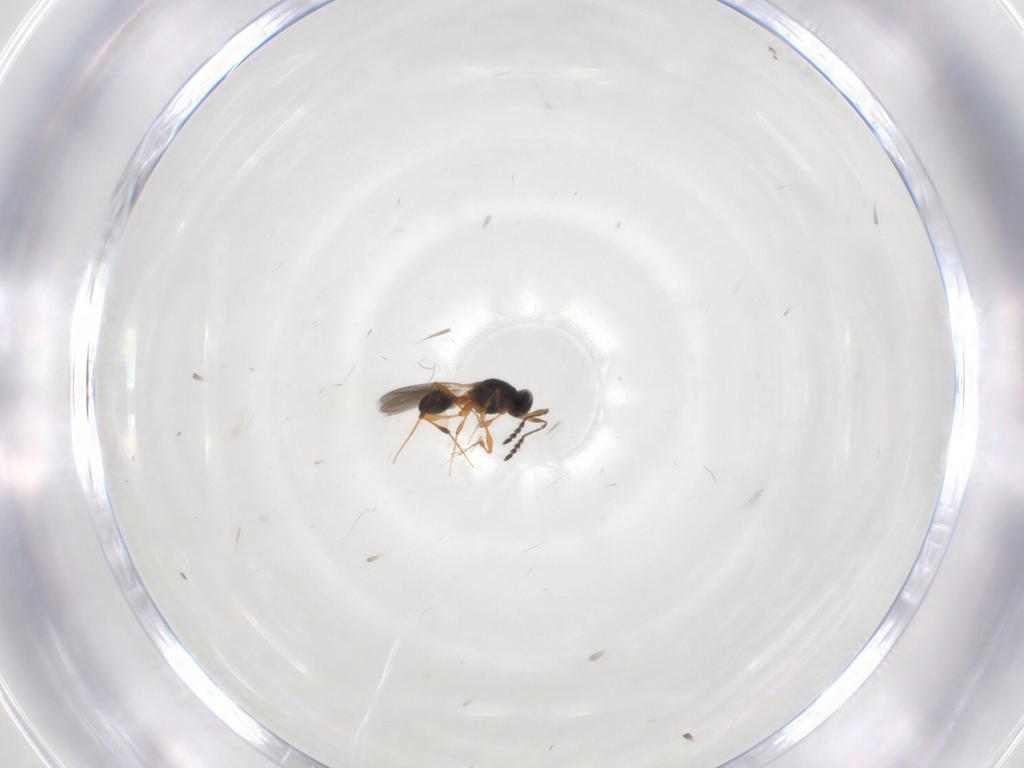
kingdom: Animalia
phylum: Arthropoda
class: Insecta
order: Hymenoptera
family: Platygastridae
